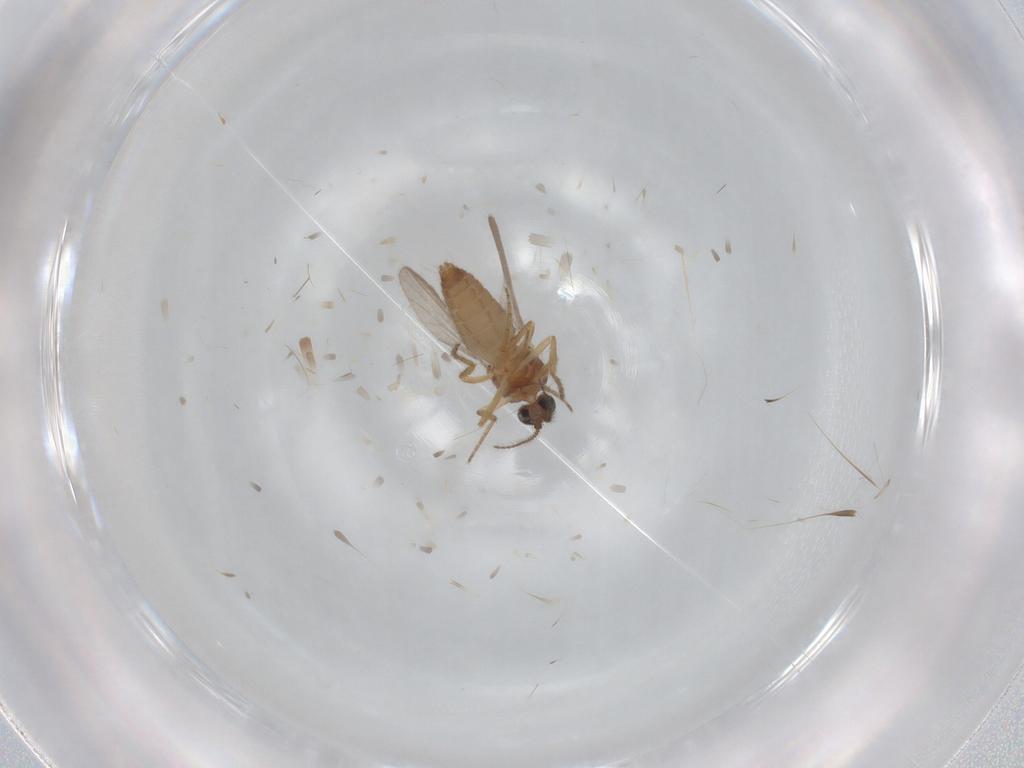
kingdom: Animalia
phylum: Arthropoda
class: Insecta
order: Diptera
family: Ceratopogonidae
